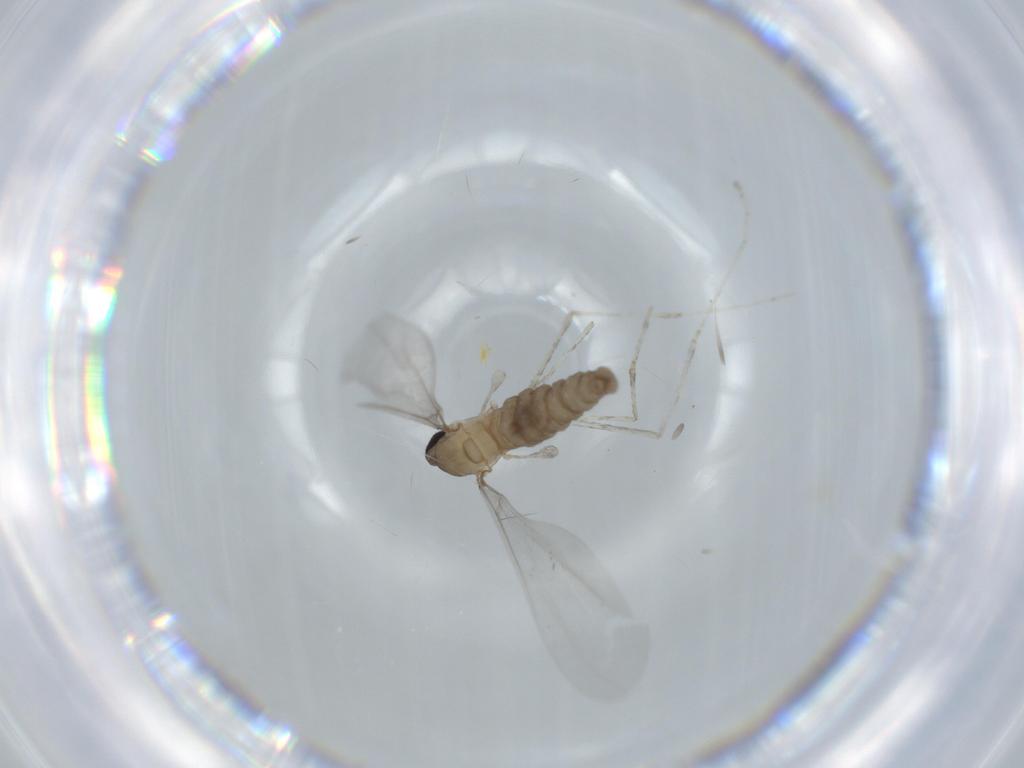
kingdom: Animalia
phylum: Arthropoda
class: Insecta
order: Diptera
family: Cecidomyiidae
